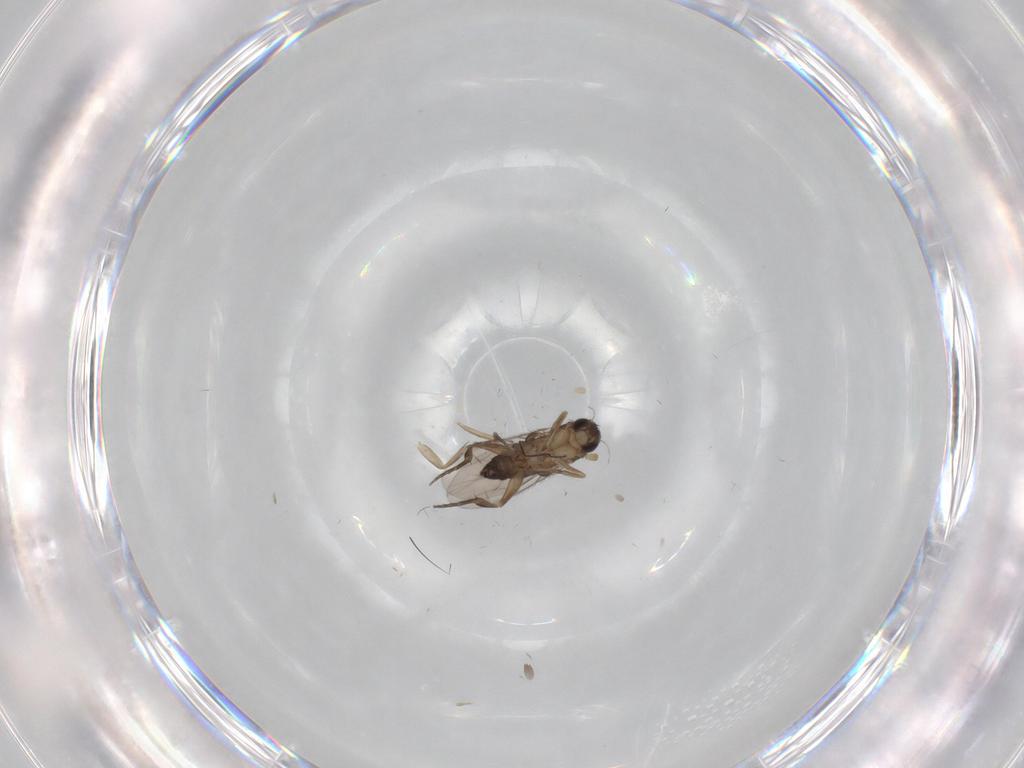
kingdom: Animalia
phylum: Arthropoda
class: Insecta
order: Diptera
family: Phoridae
